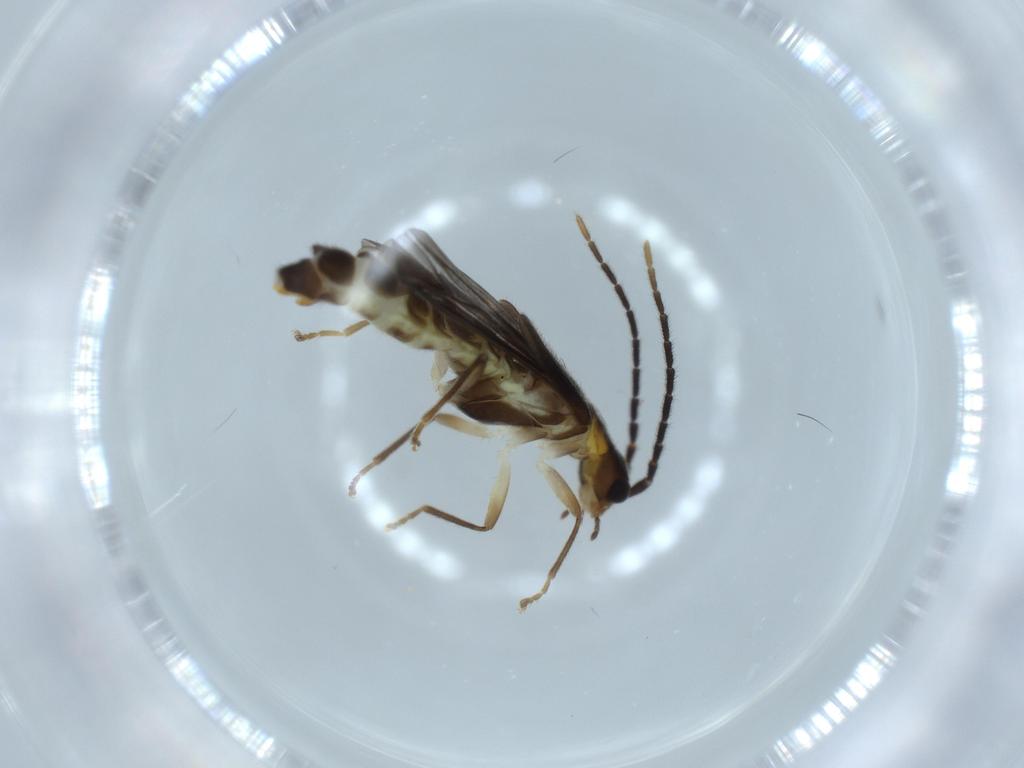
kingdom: Animalia
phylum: Arthropoda
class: Insecta
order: Coleoptera
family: Cantharidae
